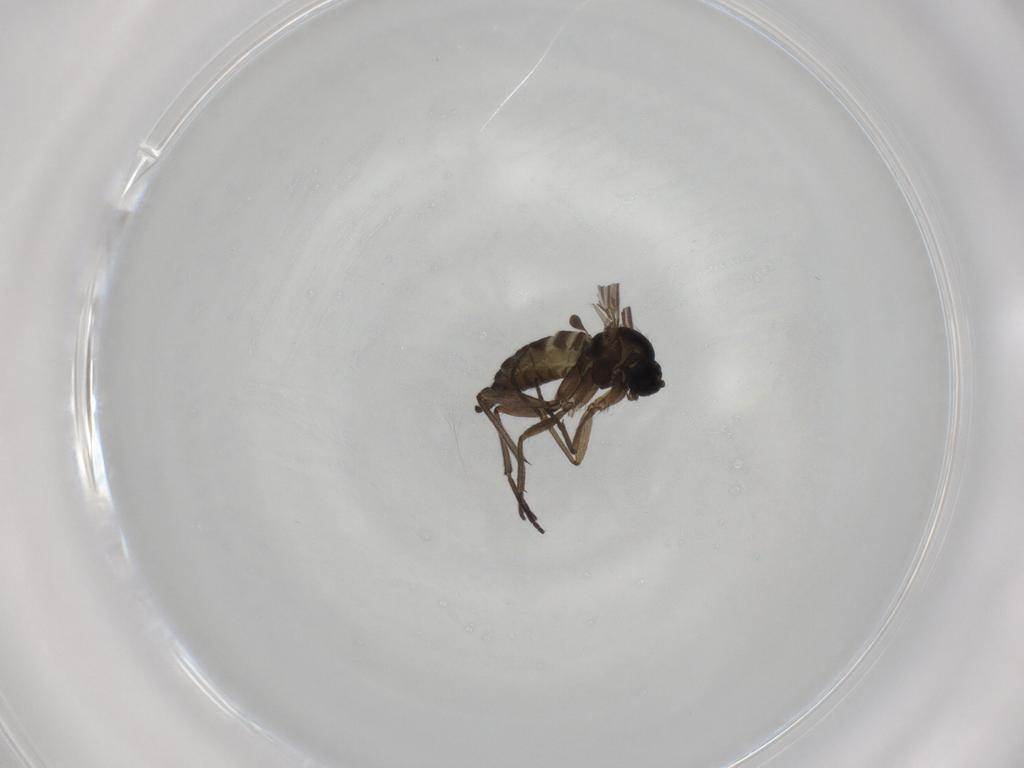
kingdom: Animalia
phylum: Arthropoda
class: Insecta
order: Diptera
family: Sciaridae
